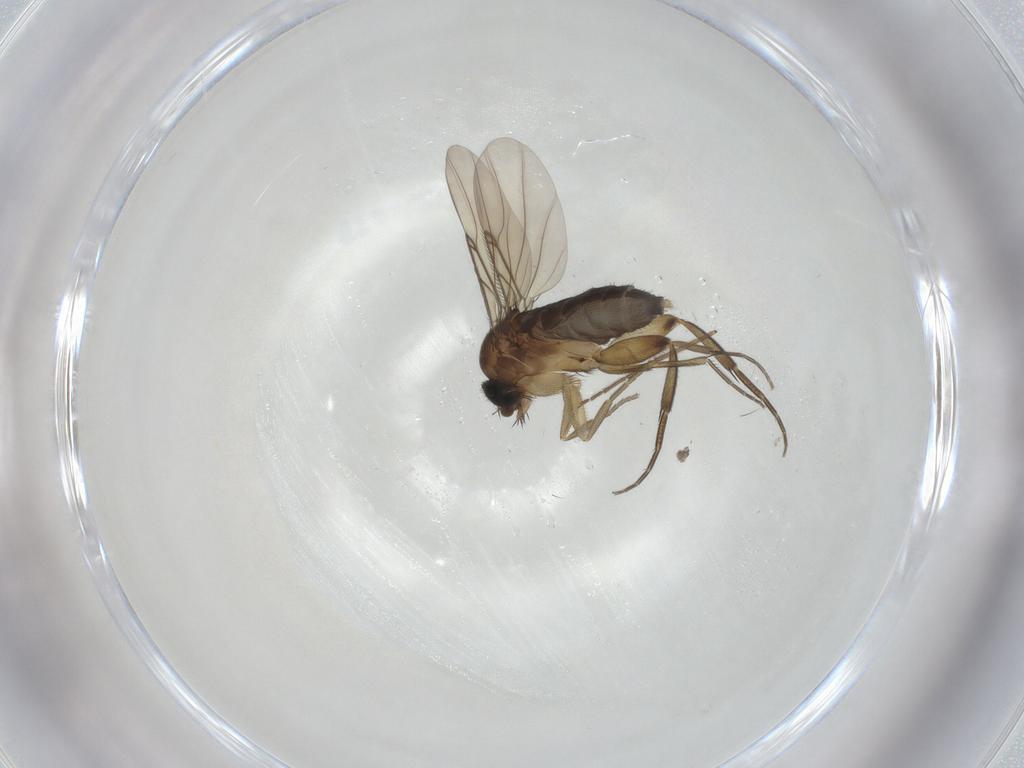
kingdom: Animalia
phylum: Arthropoda
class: Insecta
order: Diptera
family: Phoridae
